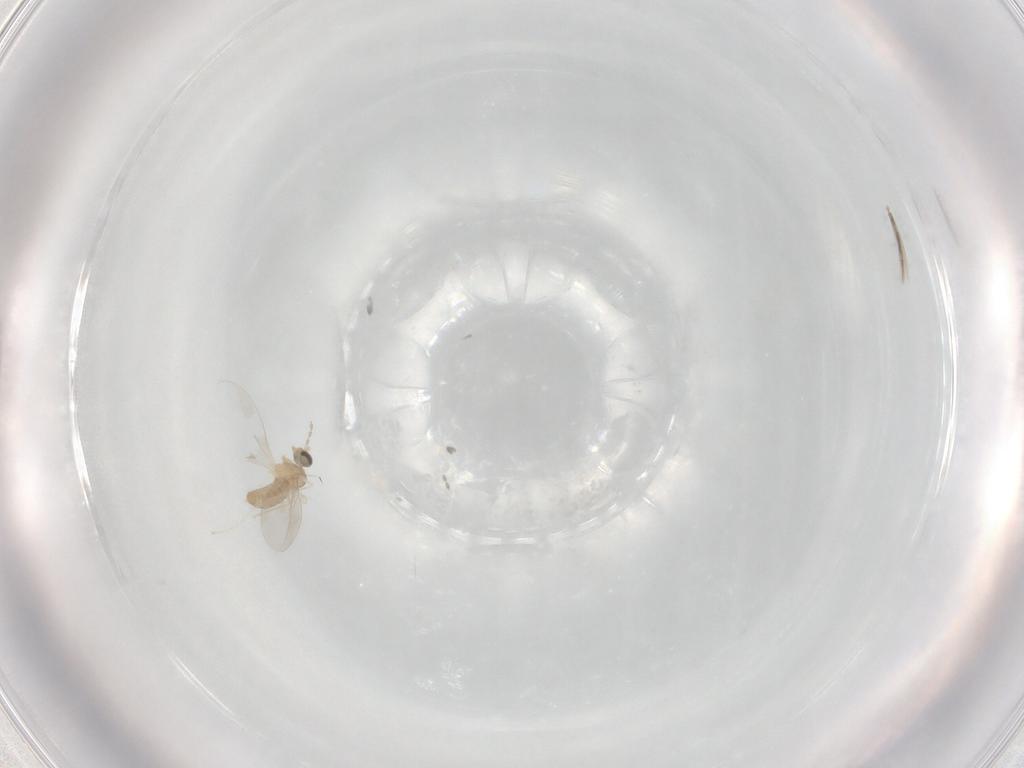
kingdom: Animalia
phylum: Arthropoda
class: Insecta
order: Diptera
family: Ceratopogonidae
